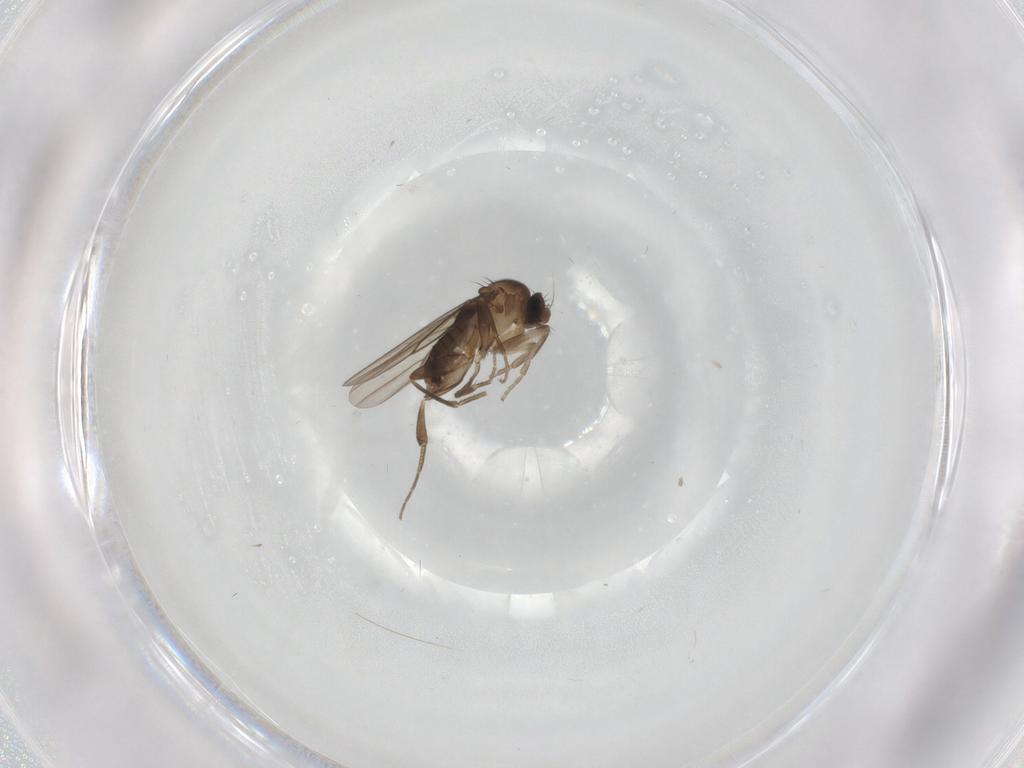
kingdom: Animalia
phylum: Arthropoda
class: Insecta
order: Diptera
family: Phoridae
